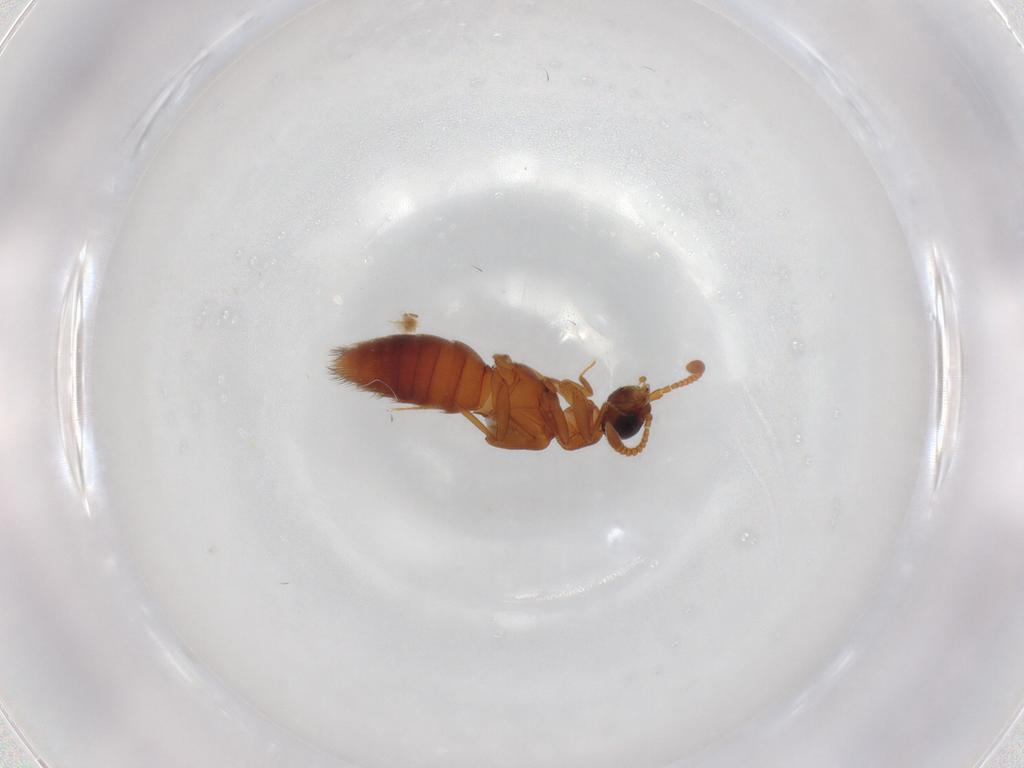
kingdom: Animalia
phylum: Arthropoda
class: Insecta
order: Coleoptera
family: Staphylinidae
